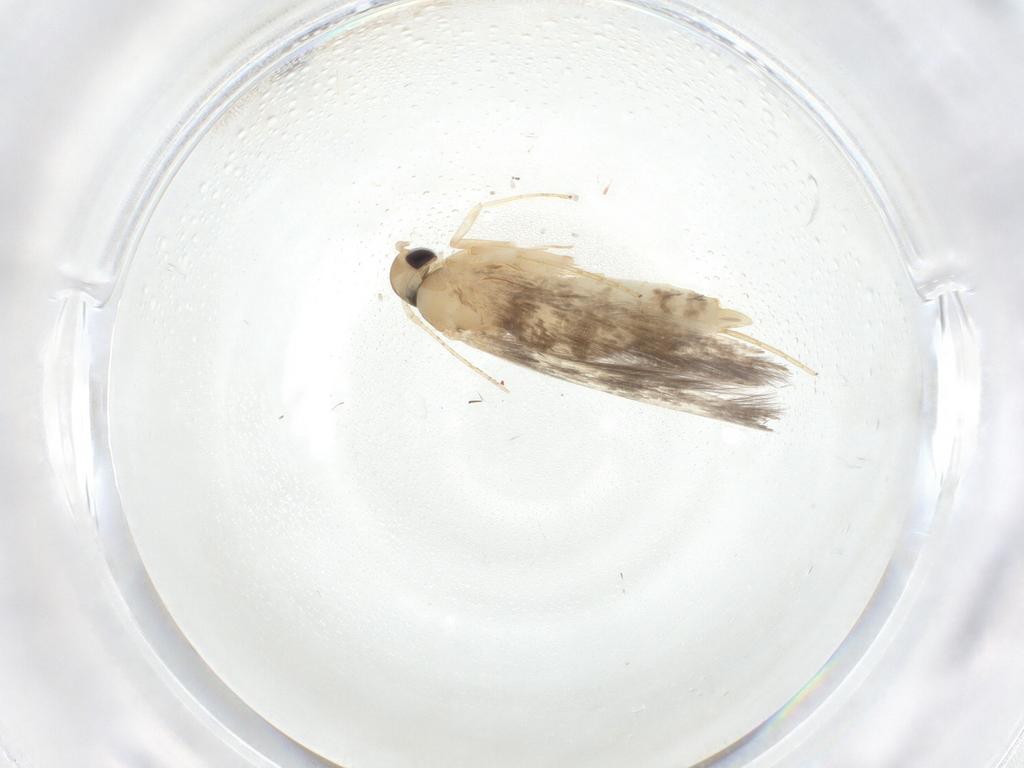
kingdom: Animalia
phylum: Arthropoda
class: Insecta
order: Lepidoptera
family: Cosmopterigidae
